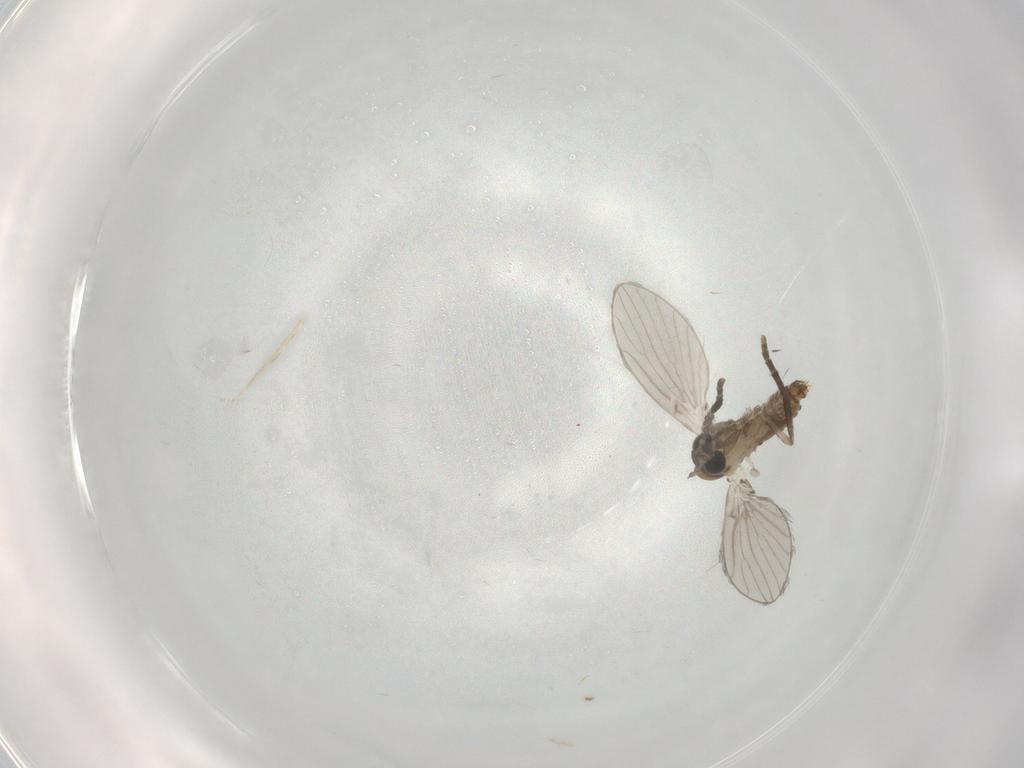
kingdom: Animalia
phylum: Arthropoda
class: Insecta
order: Diptera
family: Psychodidae
